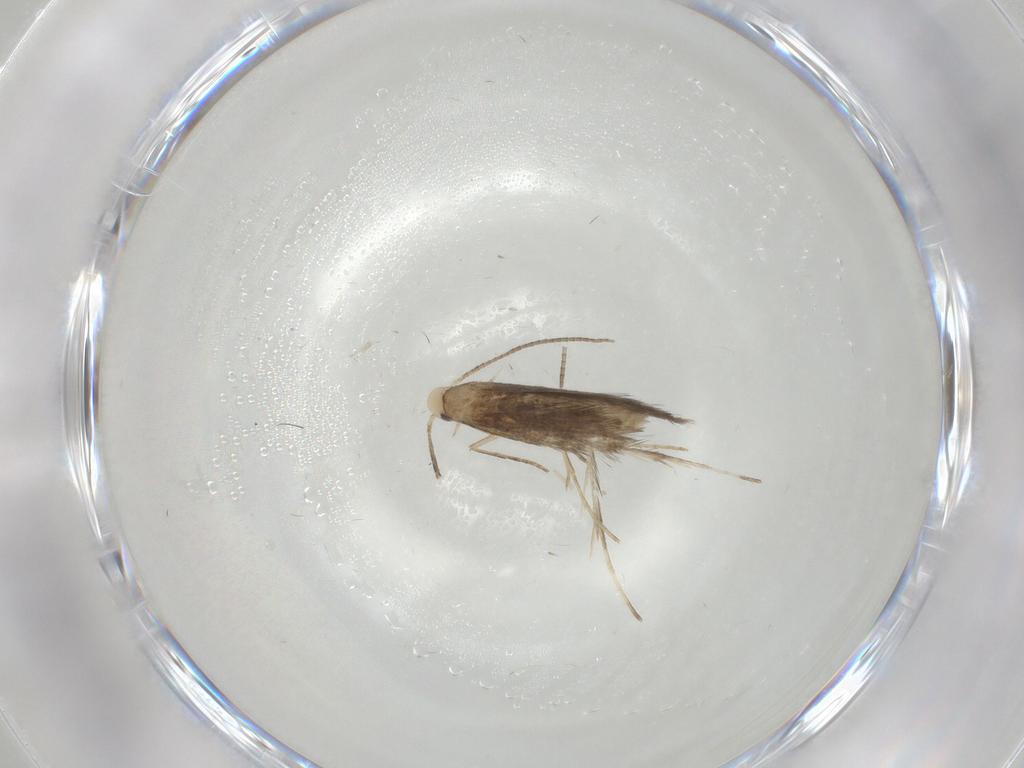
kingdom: Animalia
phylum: Arthropoda
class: Insecta
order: Lepidoptera
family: Gracillariidae
